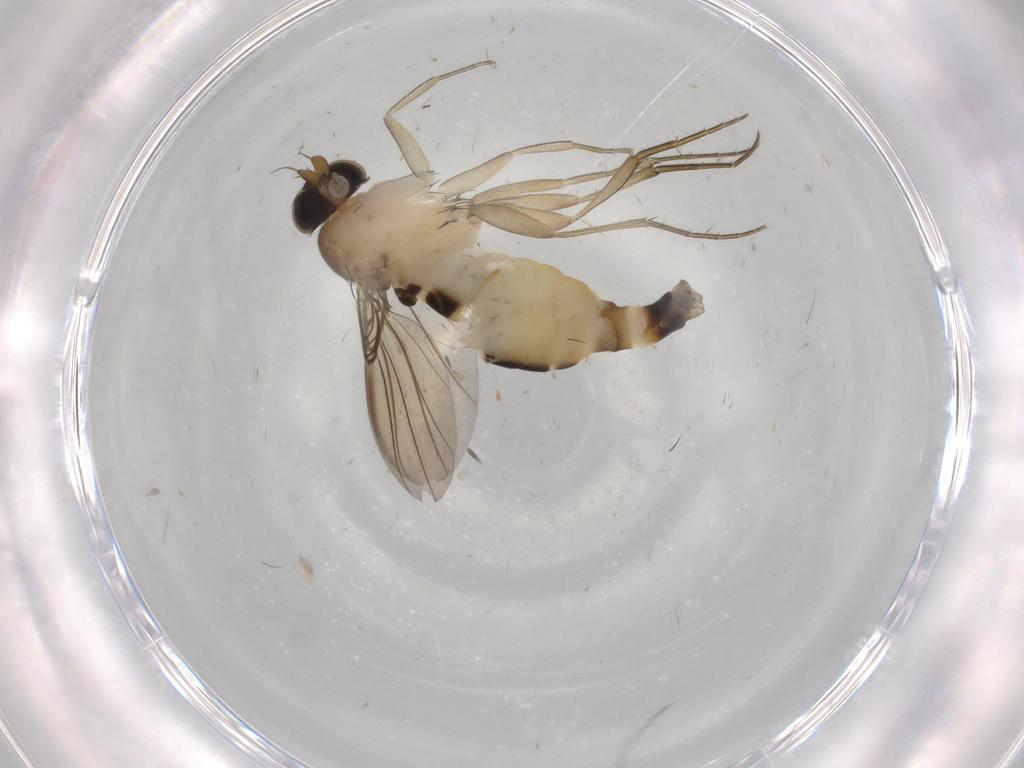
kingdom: Animalia
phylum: Arthropoda
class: Insecta
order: Diptera
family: Phoridae
